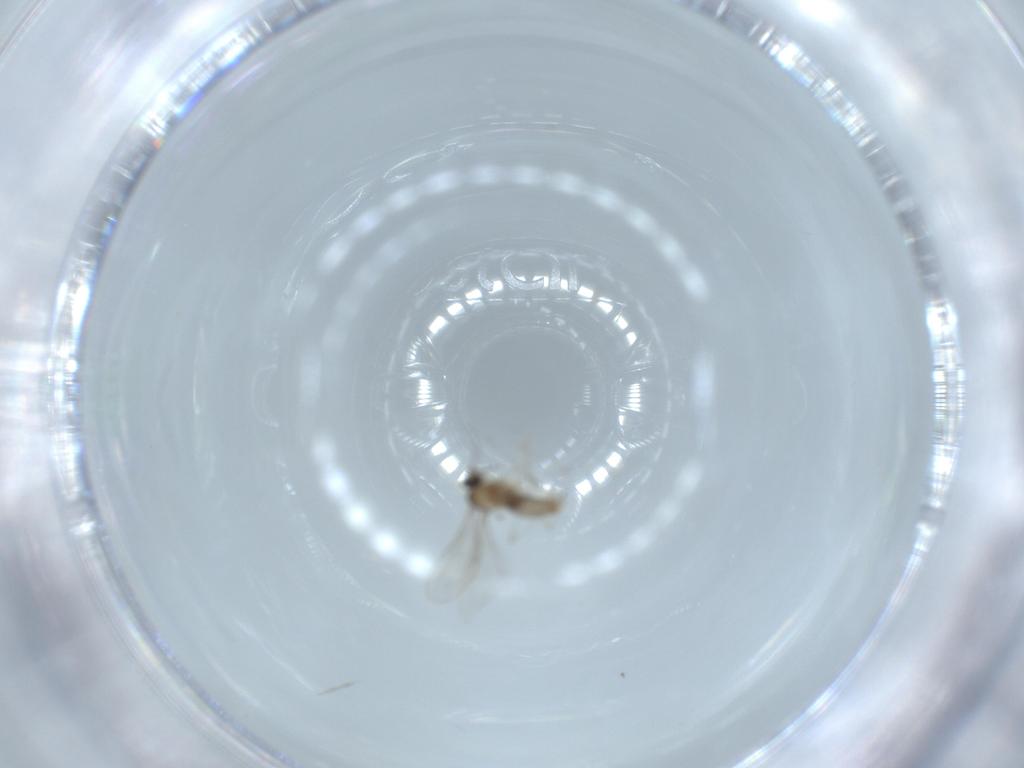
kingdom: Animalia
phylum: Arthropoda
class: Insecta
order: Diptera
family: Cecidomyiidae
